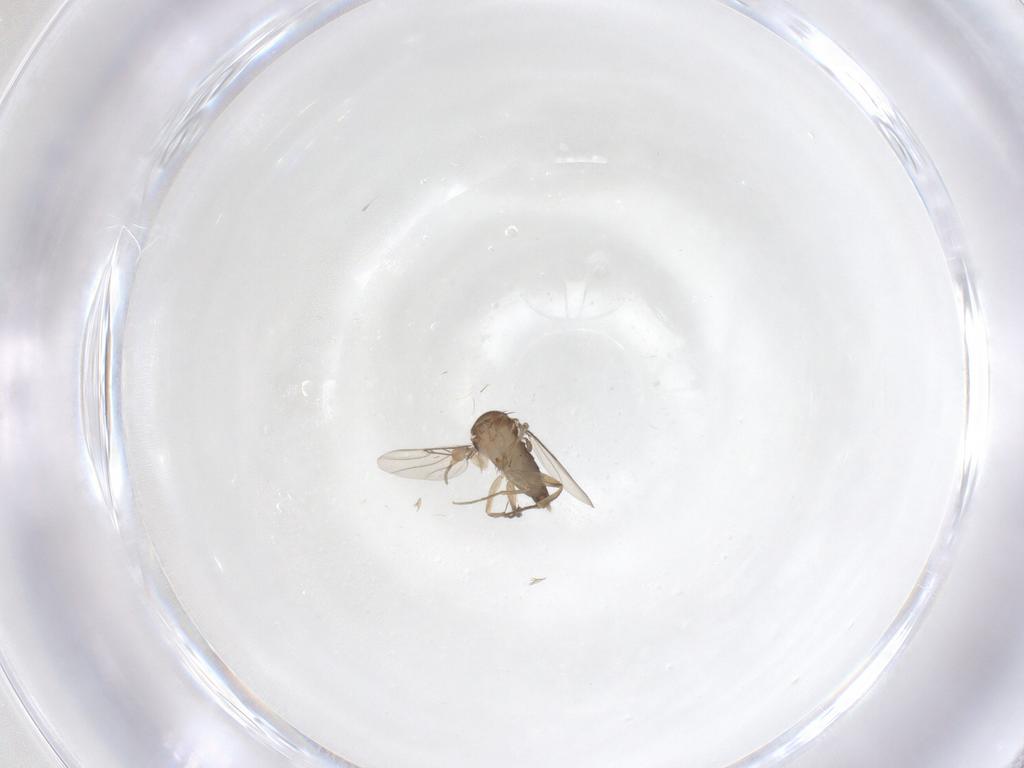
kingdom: Animalia
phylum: Arthropoda
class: Insecta
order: Diptera
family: Phoridae
